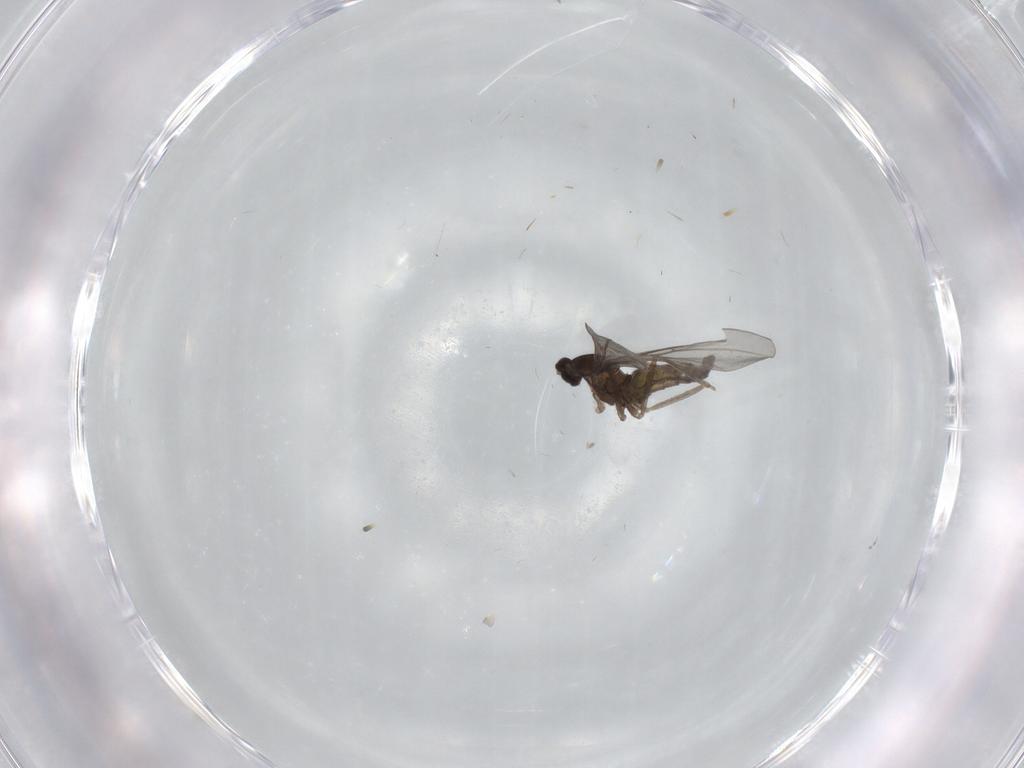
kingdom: Animalia
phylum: Arthropoda
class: Insecta
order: Diptera
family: Cecidomyiidae
